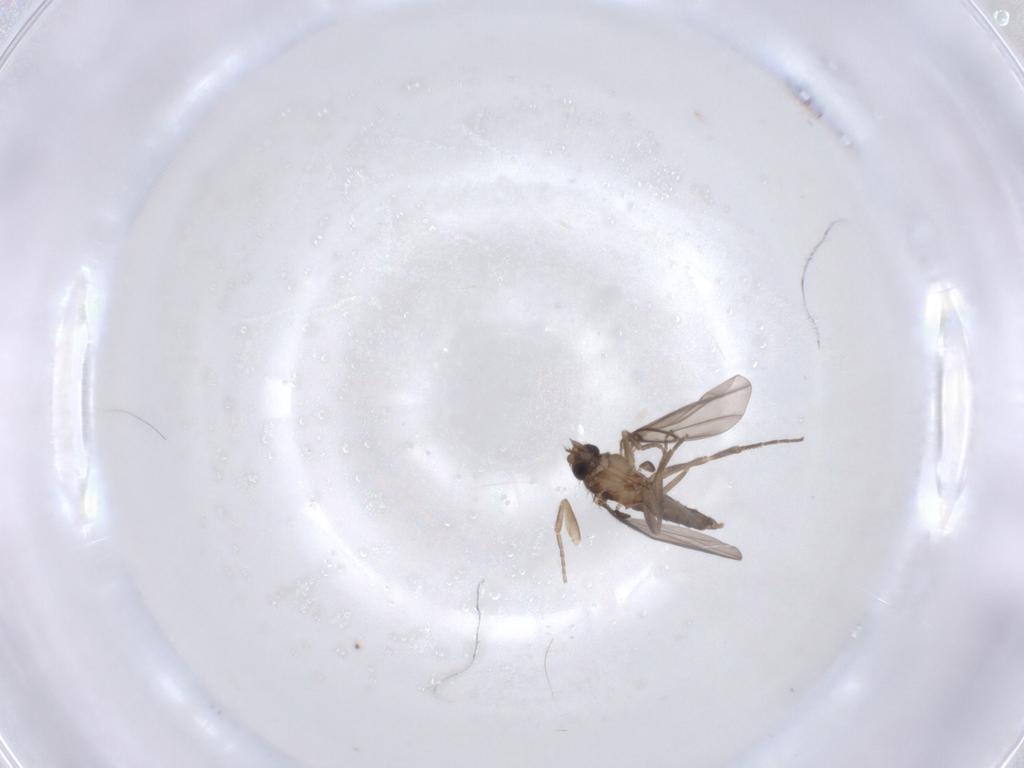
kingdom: Animalia
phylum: Arthropoda
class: Insecta
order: Diptera
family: Phoridae
